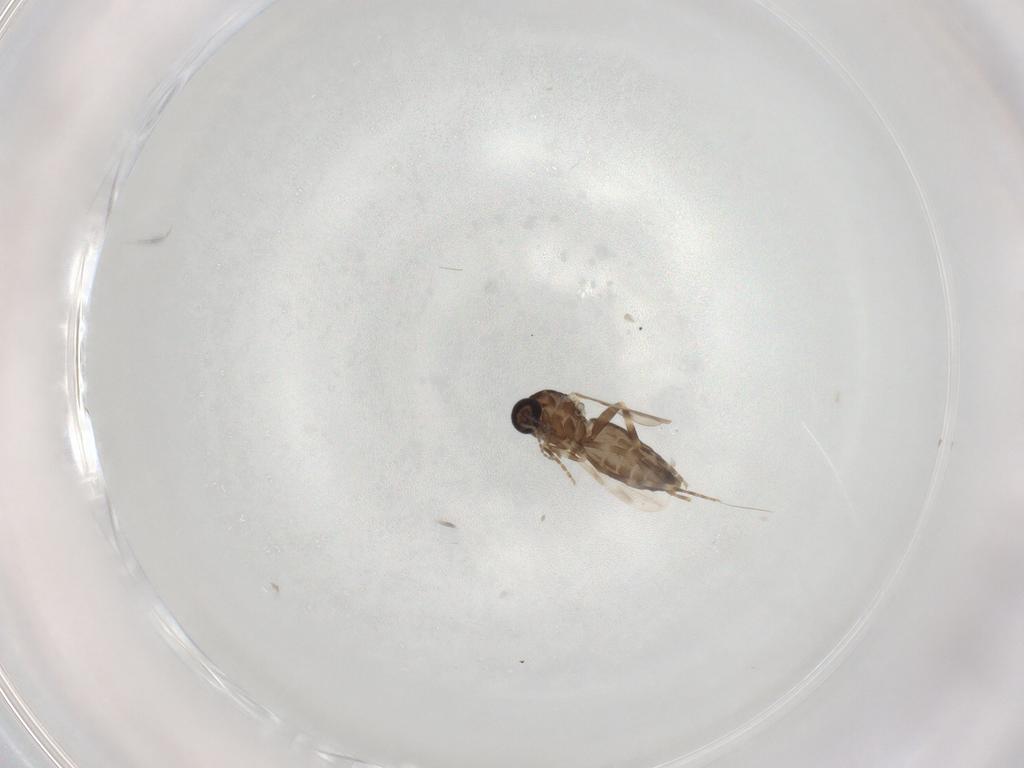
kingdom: Animalia
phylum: Arthropoda
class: Insecta
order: Diptera
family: Ceratopogonidae
